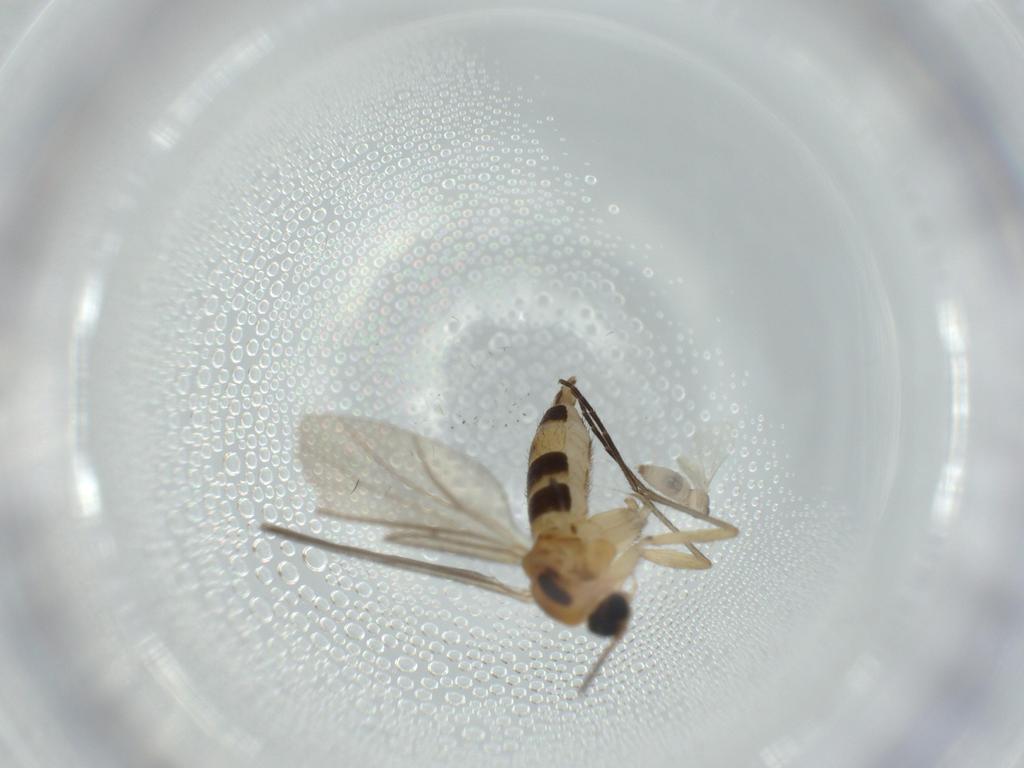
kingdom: Animalia
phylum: Arthropoda
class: Insecta
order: Diptera
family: Cecidomyiidae
